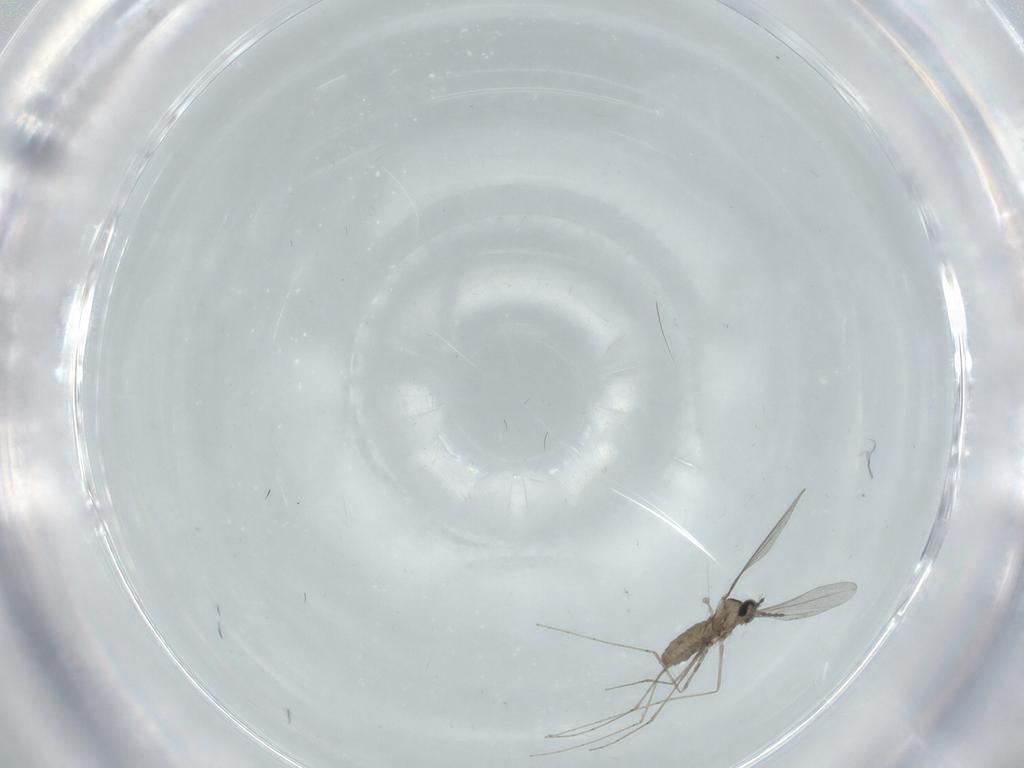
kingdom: Animalia
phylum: Arthropoda
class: Insecta
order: Diptera
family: Cecidomyiidae
